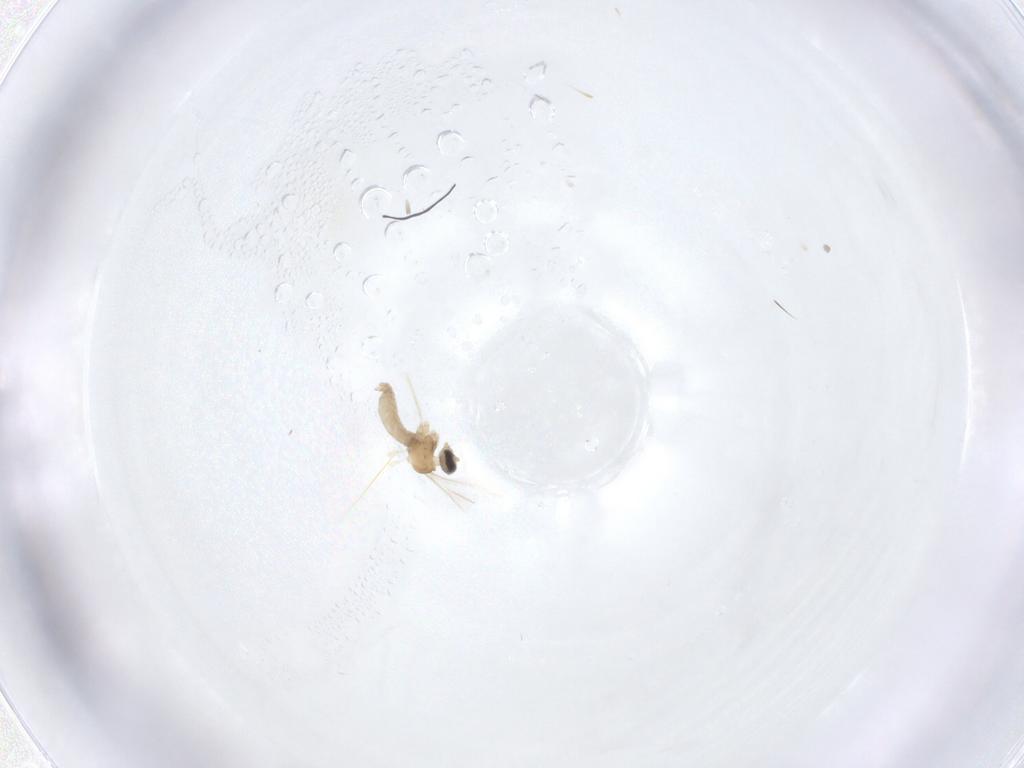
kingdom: Animalia
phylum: Arthropoda
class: Insecta
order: Diptera
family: Cecidomyiidae
